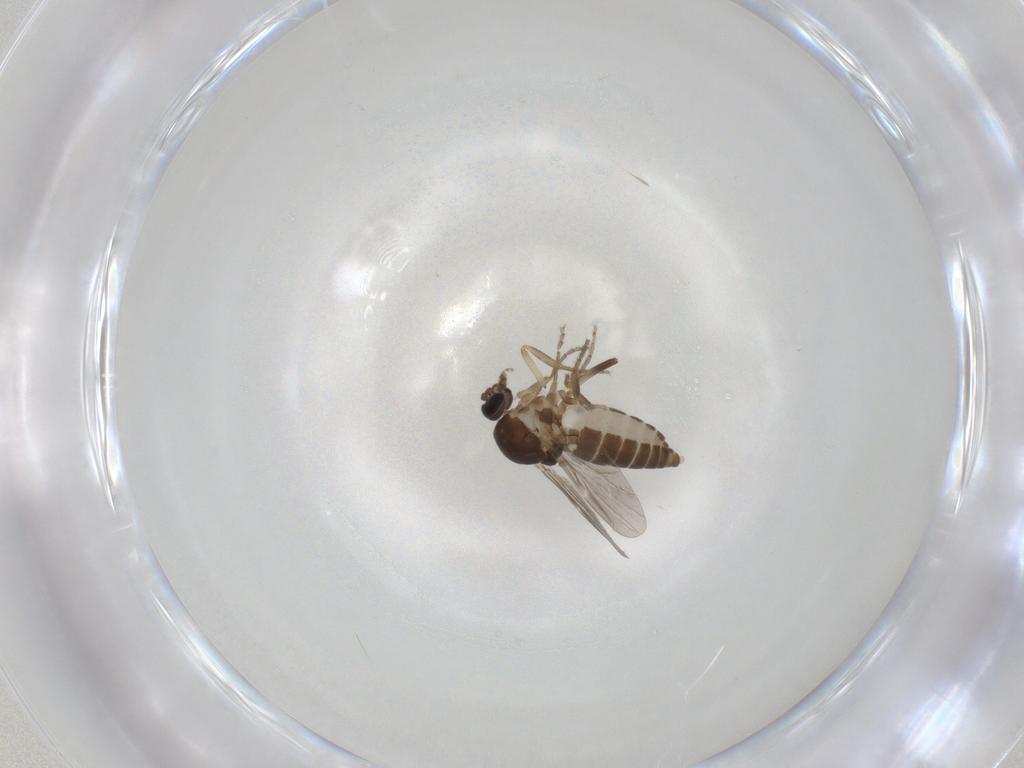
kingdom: Animalia
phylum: Arthropoda
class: Insecta
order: Diptera
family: Ceratopogonidae
